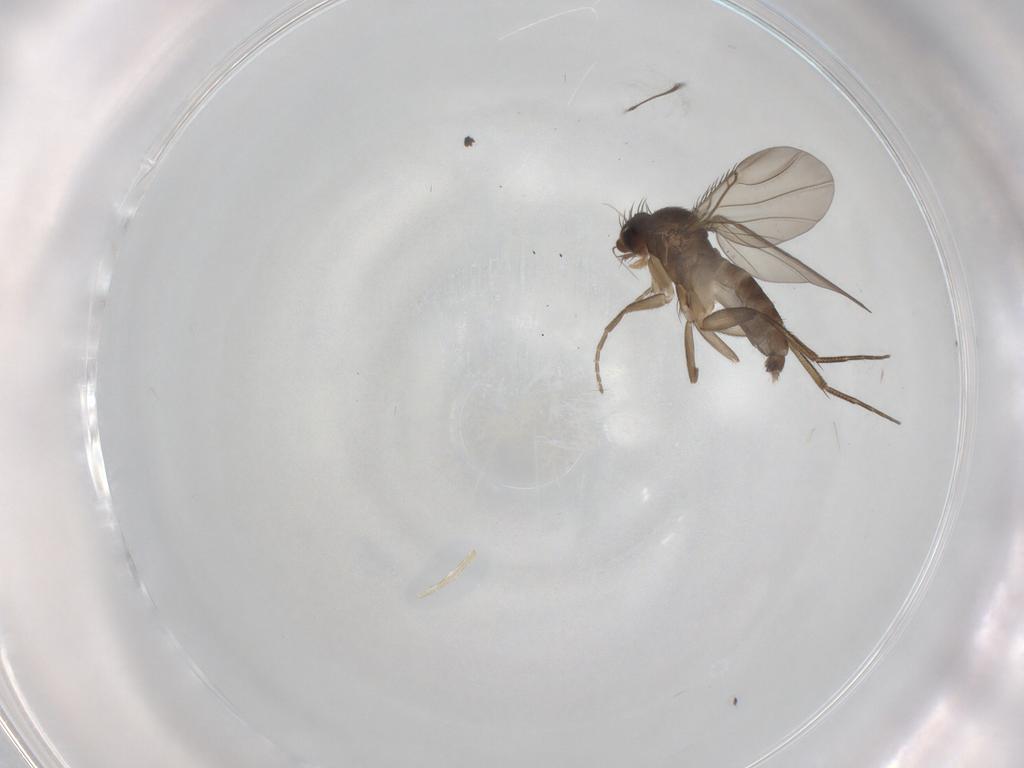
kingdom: Animalia
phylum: Arthropoda
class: Insecta
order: Diptera
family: Phoridae
